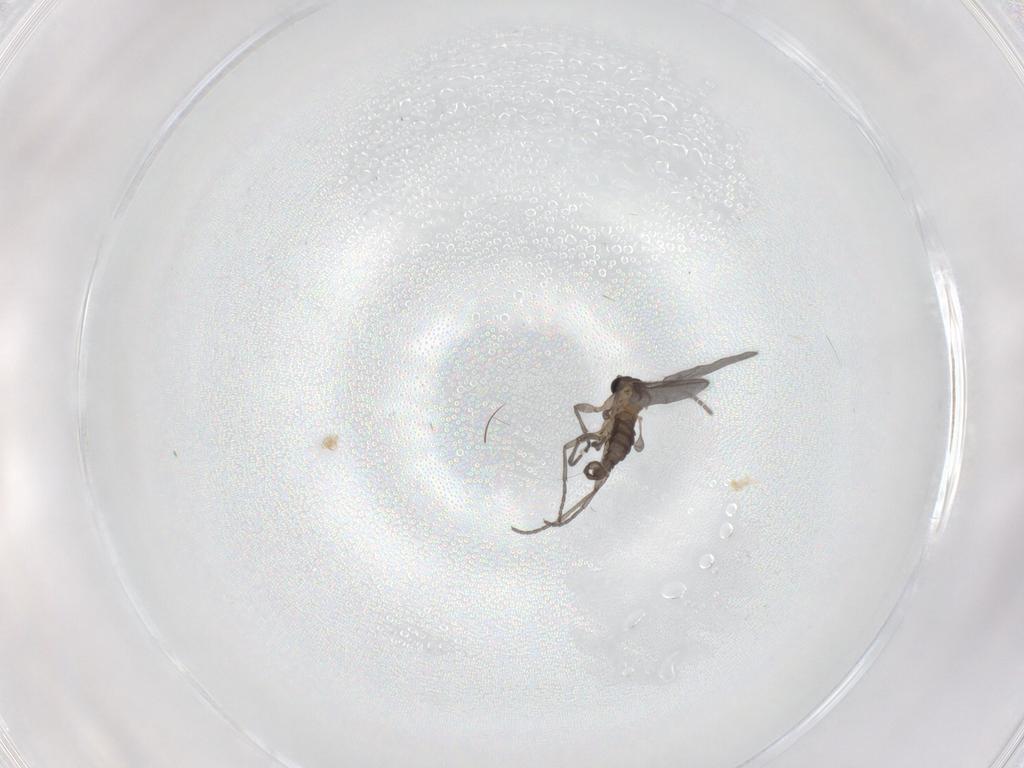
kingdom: Animalia
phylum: Arthropoda
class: Insecta
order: Diptera
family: Sciaridae
